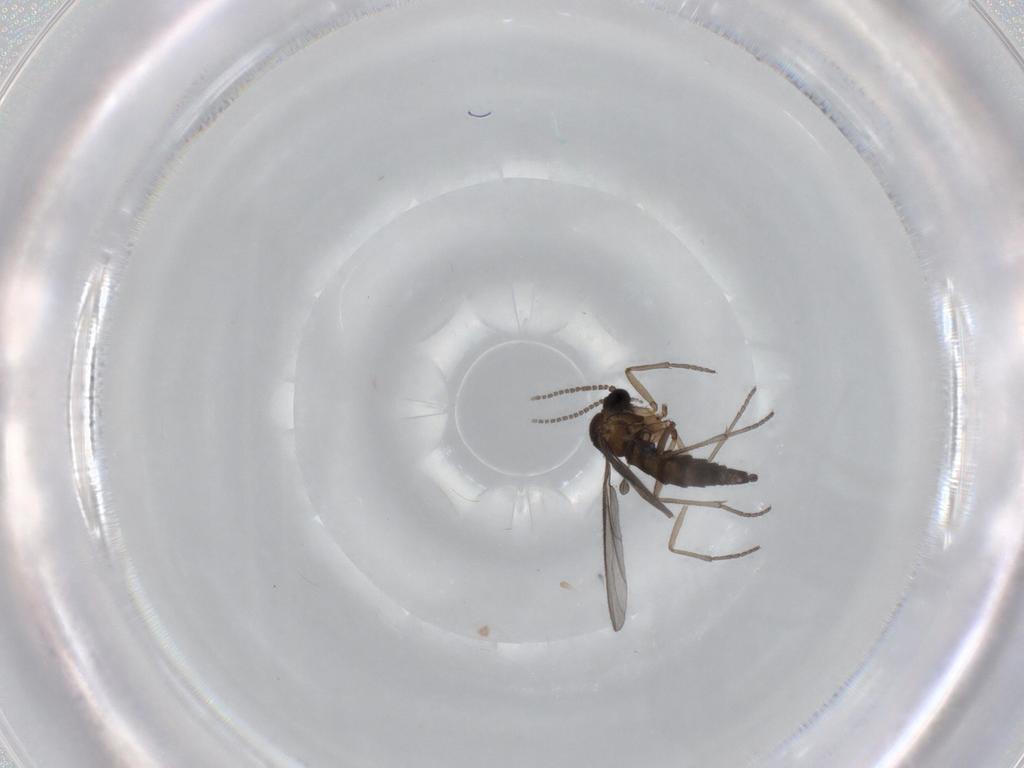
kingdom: Animalia
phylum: Arthropoda
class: Insecta
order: Diptera
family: Sciaridae
